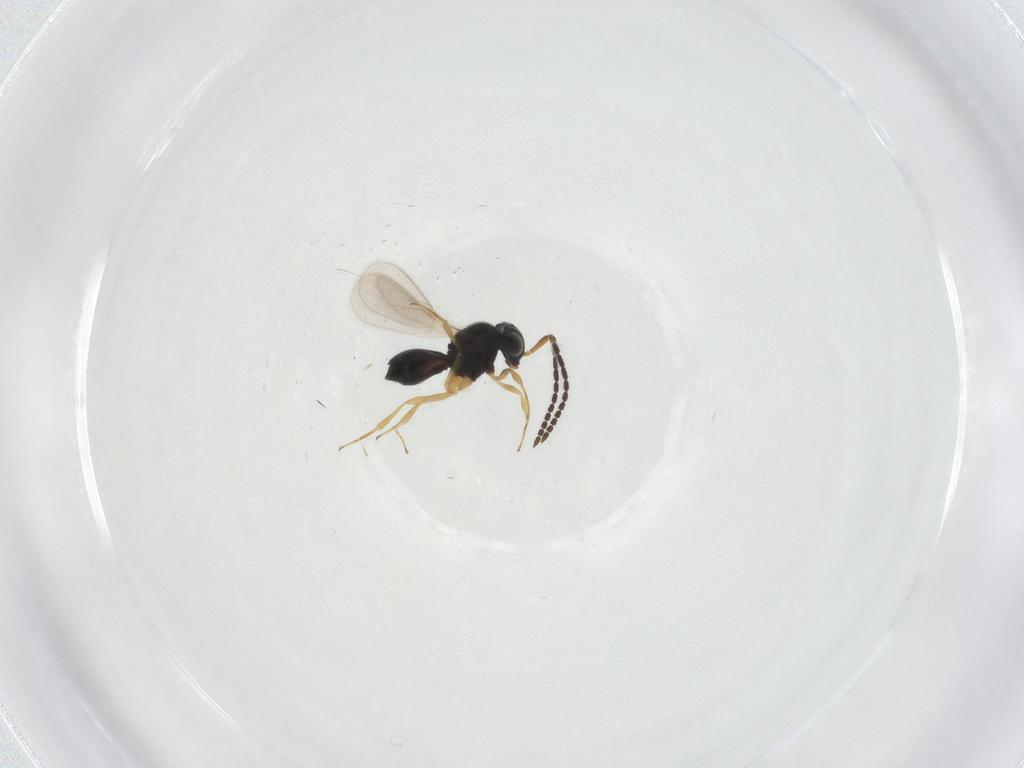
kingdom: Animalia
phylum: Arthropoda
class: Insecta
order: Hymenoptera
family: Scelionidae
